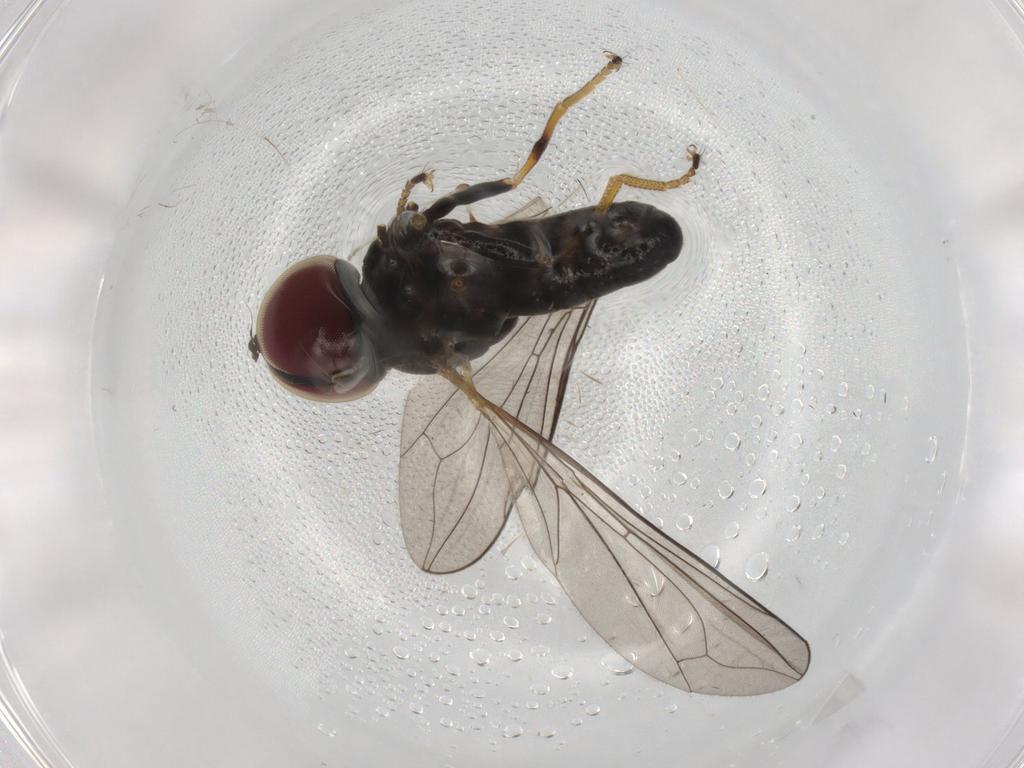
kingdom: Animalia
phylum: Arthropoda
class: Insecta
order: Diptera
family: Pipunculidae
